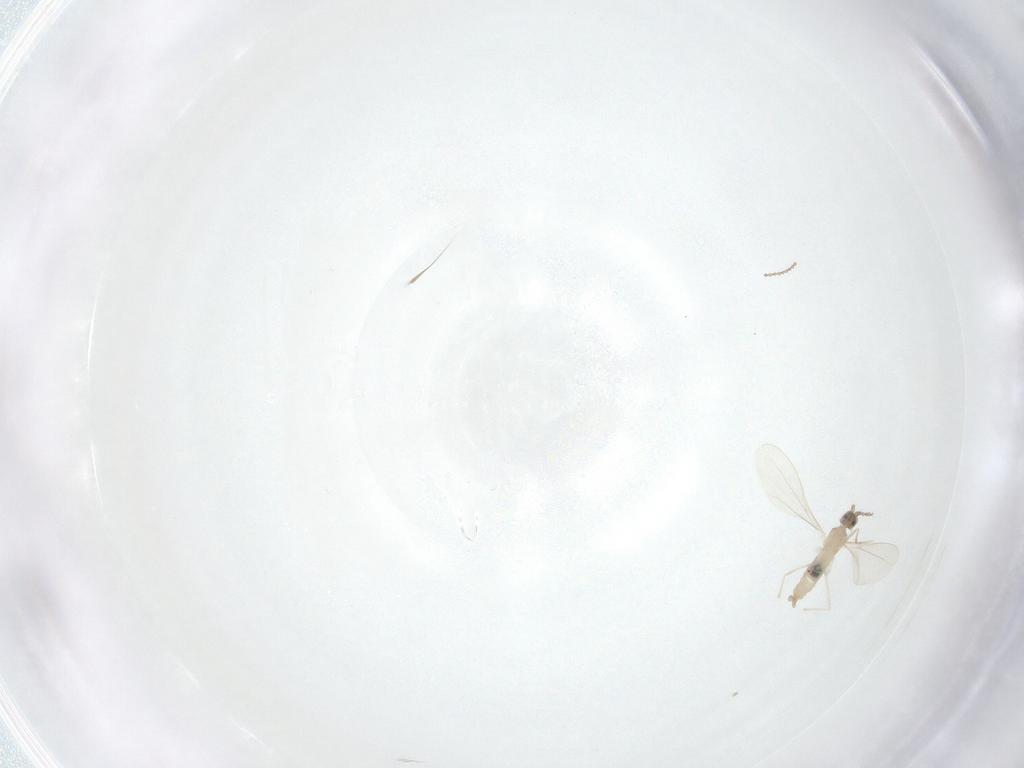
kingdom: Animalia
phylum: Arthropoda
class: Insecta
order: Diptera
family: Cecidomyiidae
